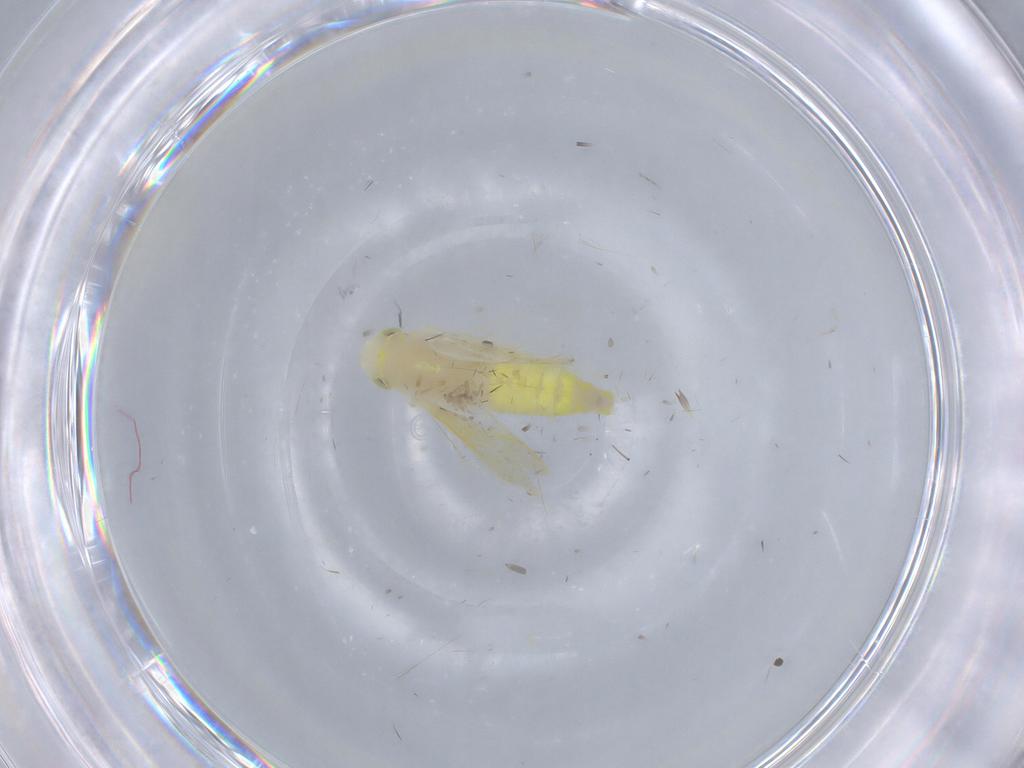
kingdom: Animalia
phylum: Arthropoda
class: Insecta
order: Hemiptera
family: Cicadellidae
